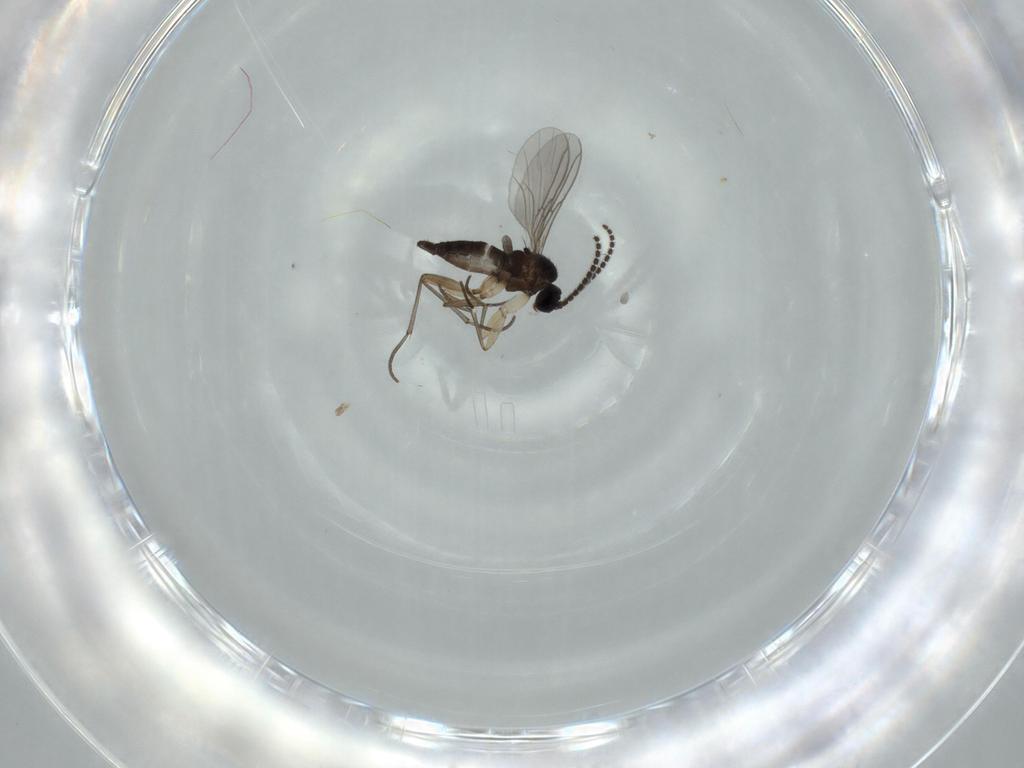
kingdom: Animalia
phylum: Arthropoda
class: Insecta
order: Diptera
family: Sciaridae
